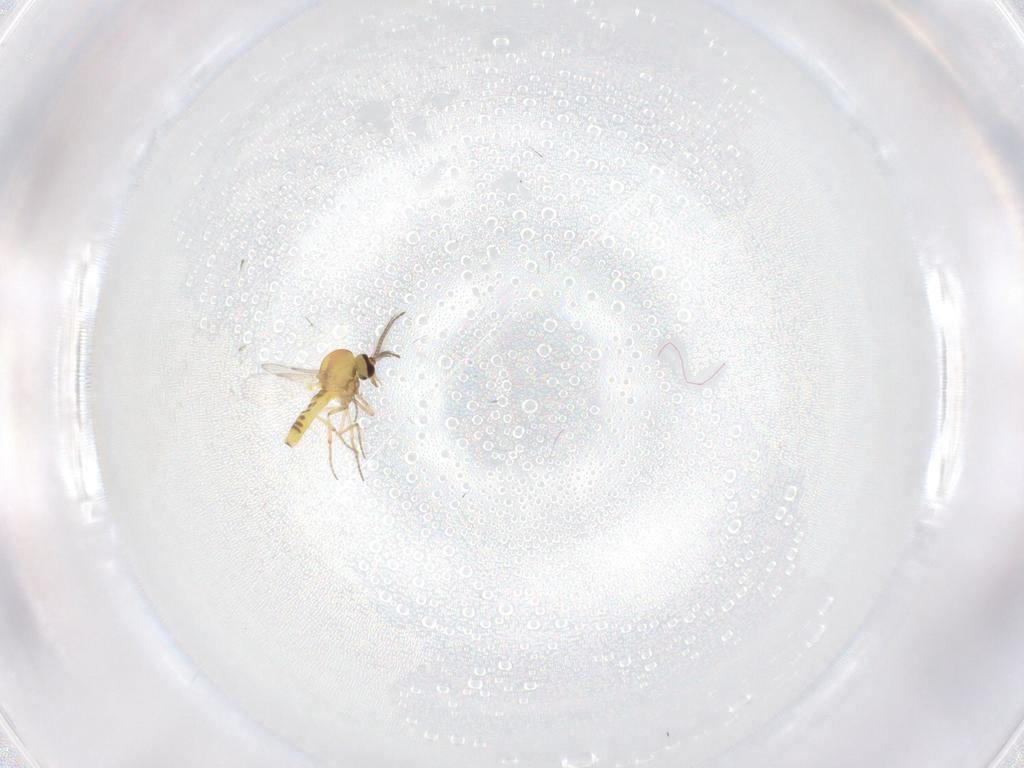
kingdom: Animalia
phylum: Arthropoda
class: Insecta
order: Diptera
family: Ceratopogonidae
